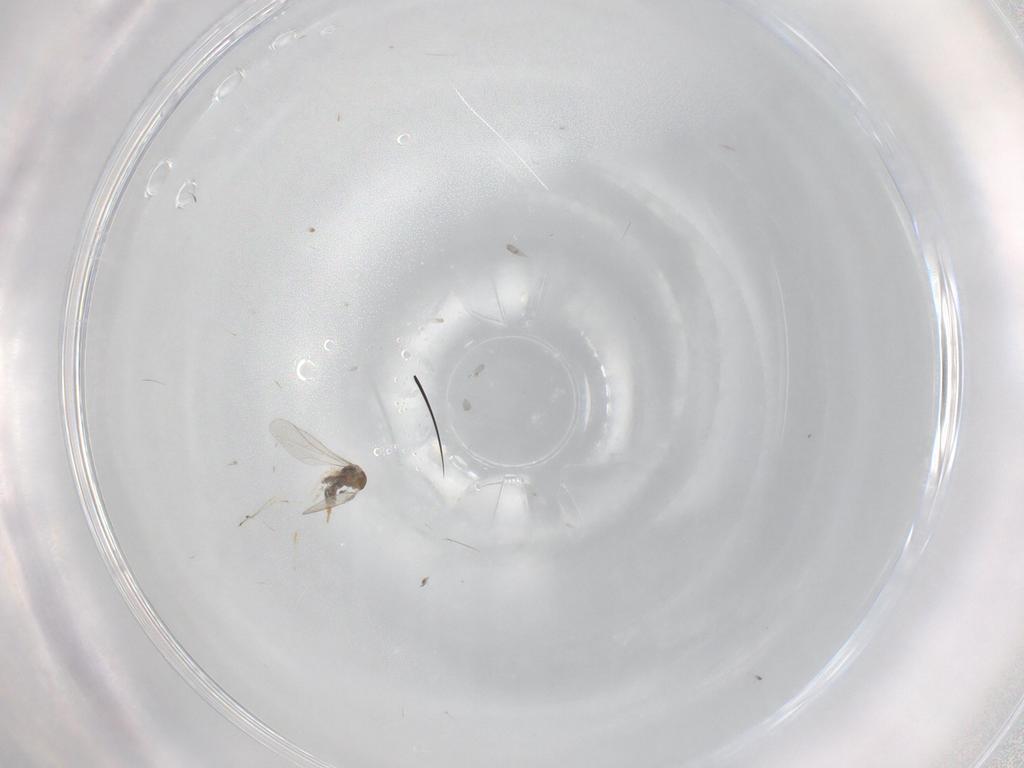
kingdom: Animalia
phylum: Arthropoda
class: Insecta
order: Diptera
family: Cecidomyiidae
